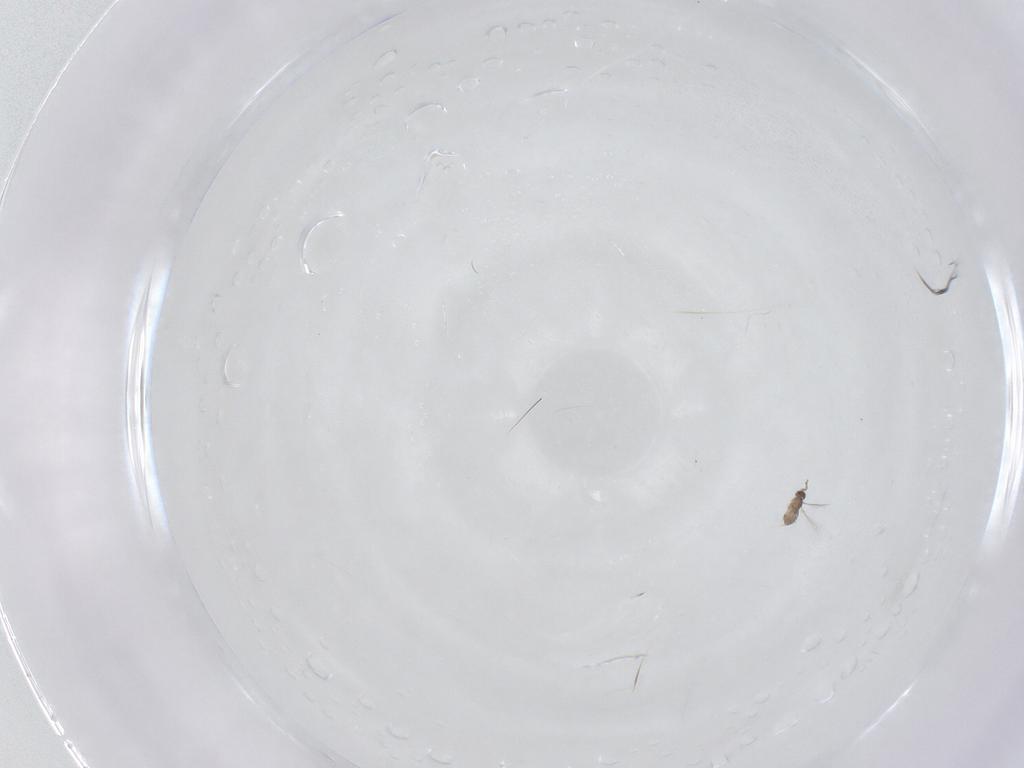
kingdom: Animalia
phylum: Arthropoda
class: Insecta
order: Hymenoptera
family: Mymaridae
